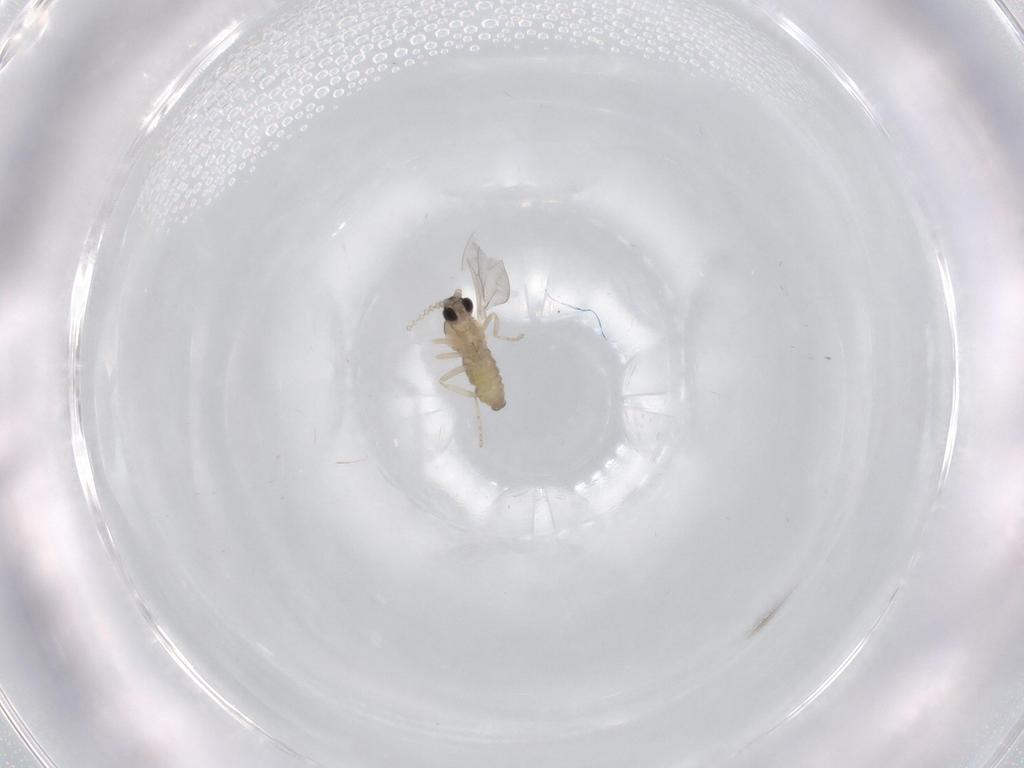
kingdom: Animalia
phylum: Arthropoda
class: Insecta
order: Diptera
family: Cecidomyiidae
